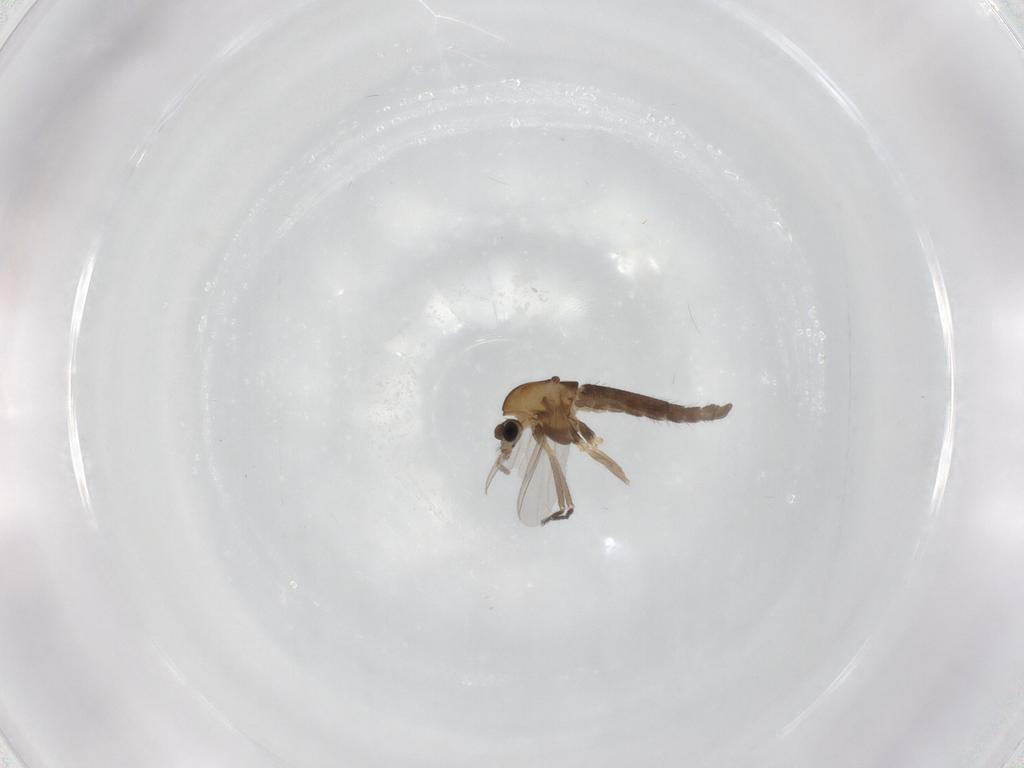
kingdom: Animalia
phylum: Arthropoda
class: Insecta
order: Diptera
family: Chironomidae
